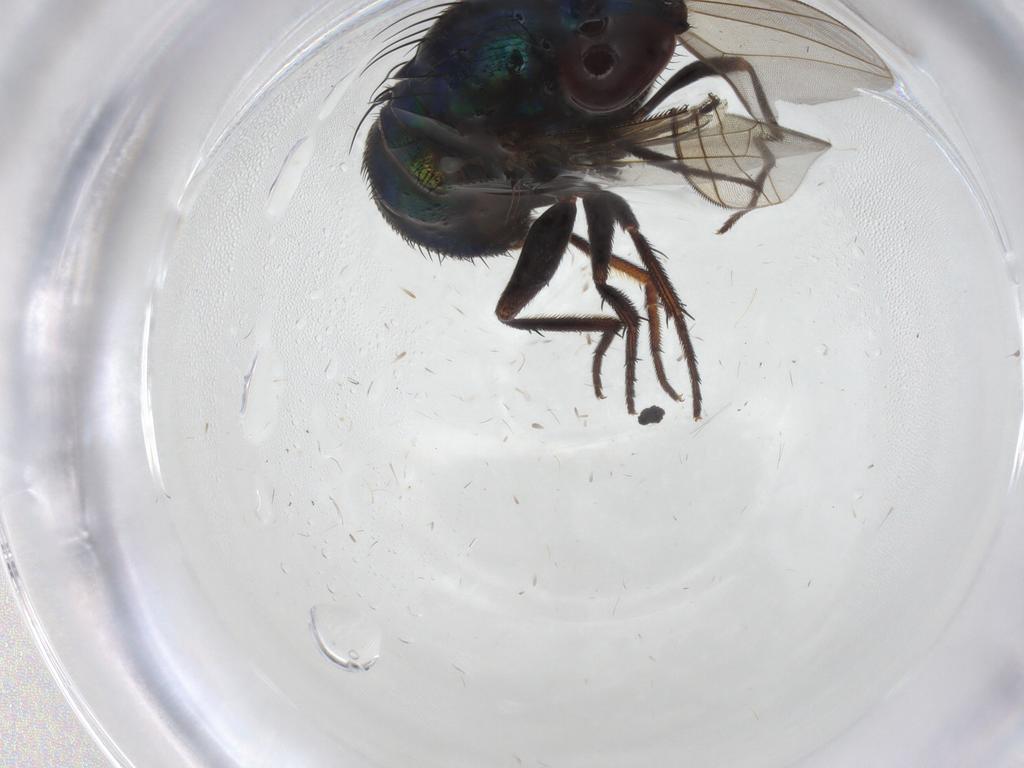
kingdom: Animalia
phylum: Arthropoda
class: Insecta
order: Diptera
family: Dolichopodidae
